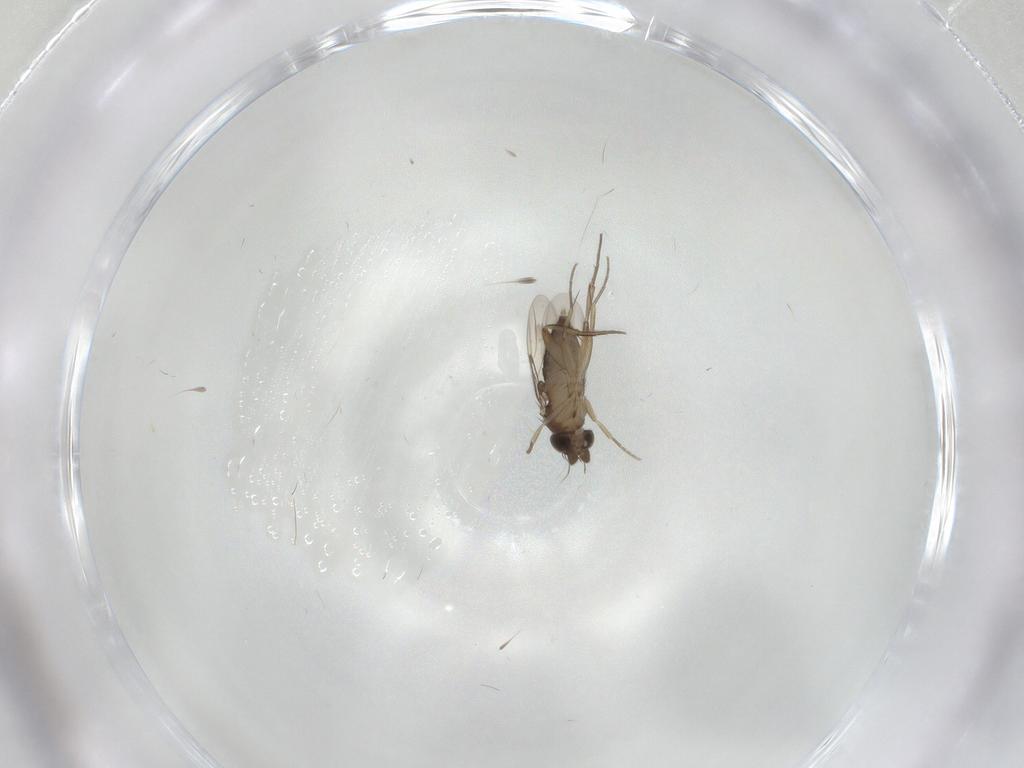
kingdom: Animalia
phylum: Arthropoda
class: Insecta
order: Diptera
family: Phoridae
